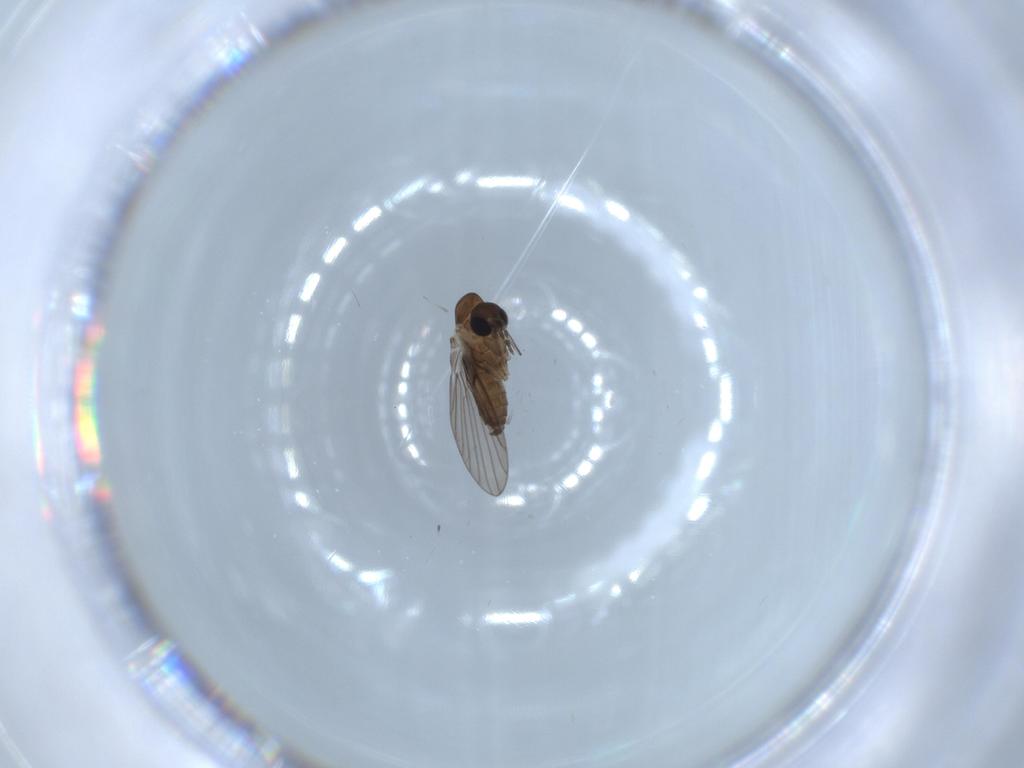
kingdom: Animalia
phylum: Arthropoda
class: Insecta
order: Diptera
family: Psychodidae
